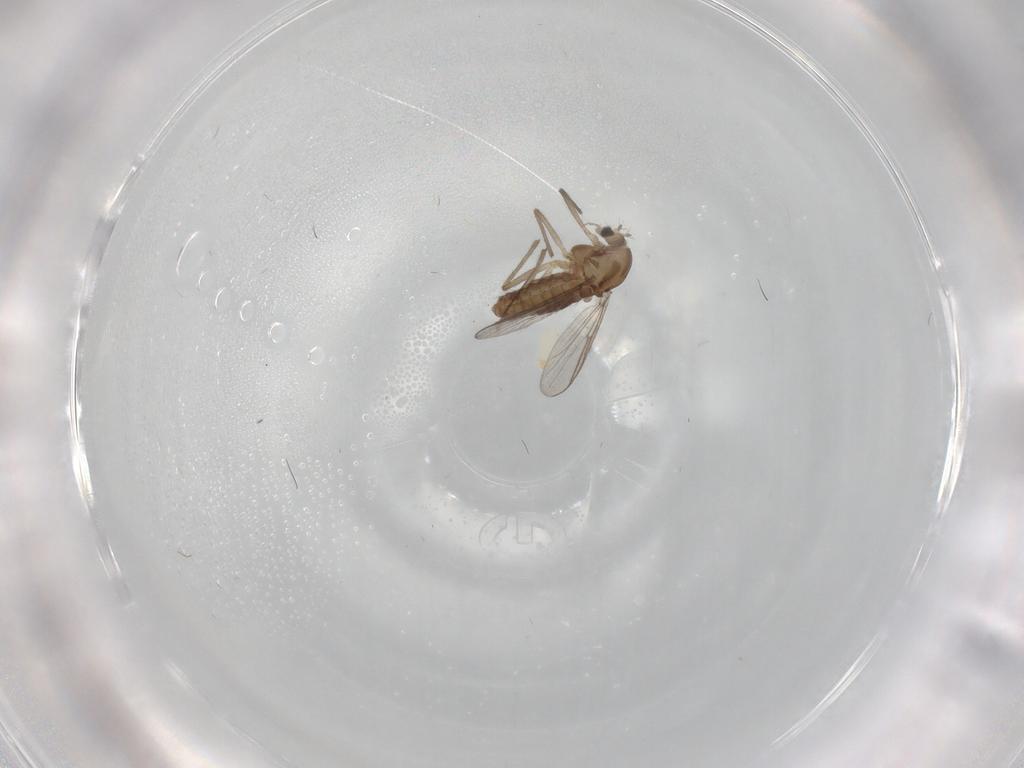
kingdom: Animalia
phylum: Arthropoda
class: Insecta
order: Diptera
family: Chironomidae
